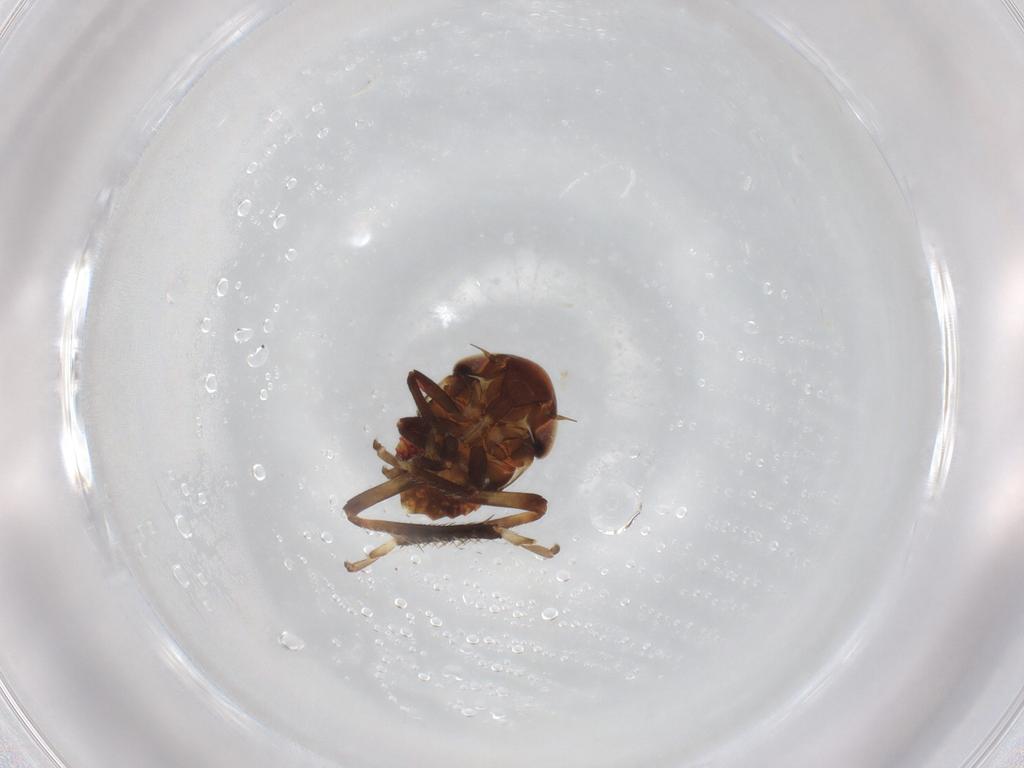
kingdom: Animalia
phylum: Arthropoda
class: Insecta
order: Hemiptera
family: Cicadellidae
